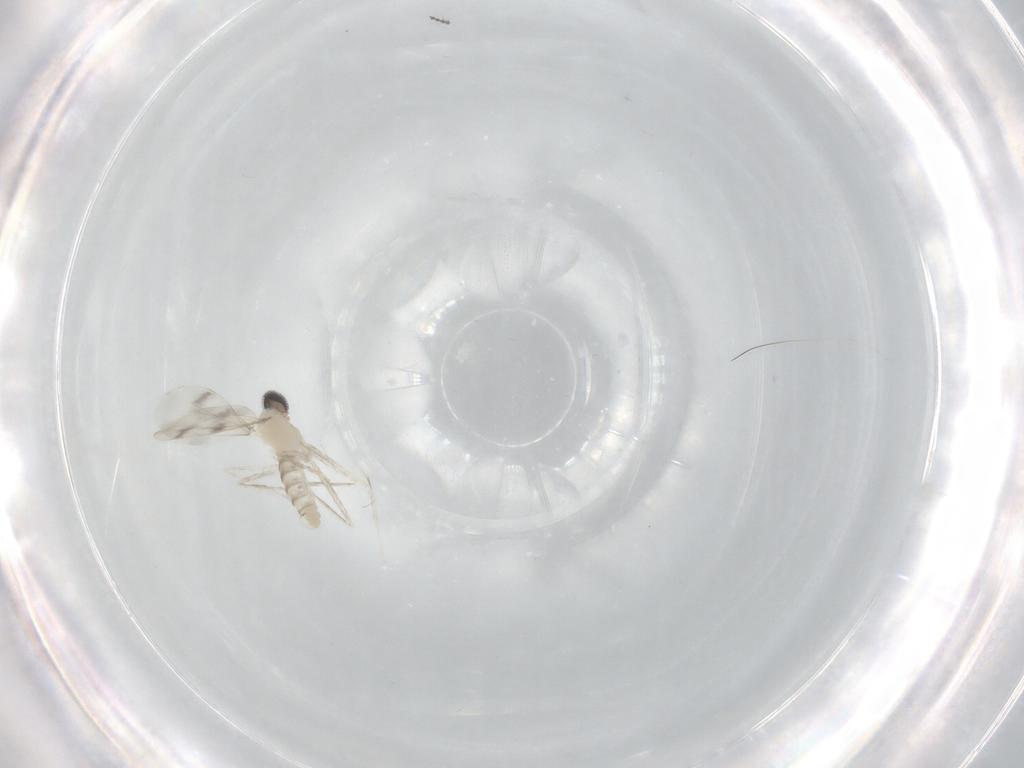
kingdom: Animalia
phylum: Arthropoda
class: Insecta
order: Diptera
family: Cecidomyiidae
